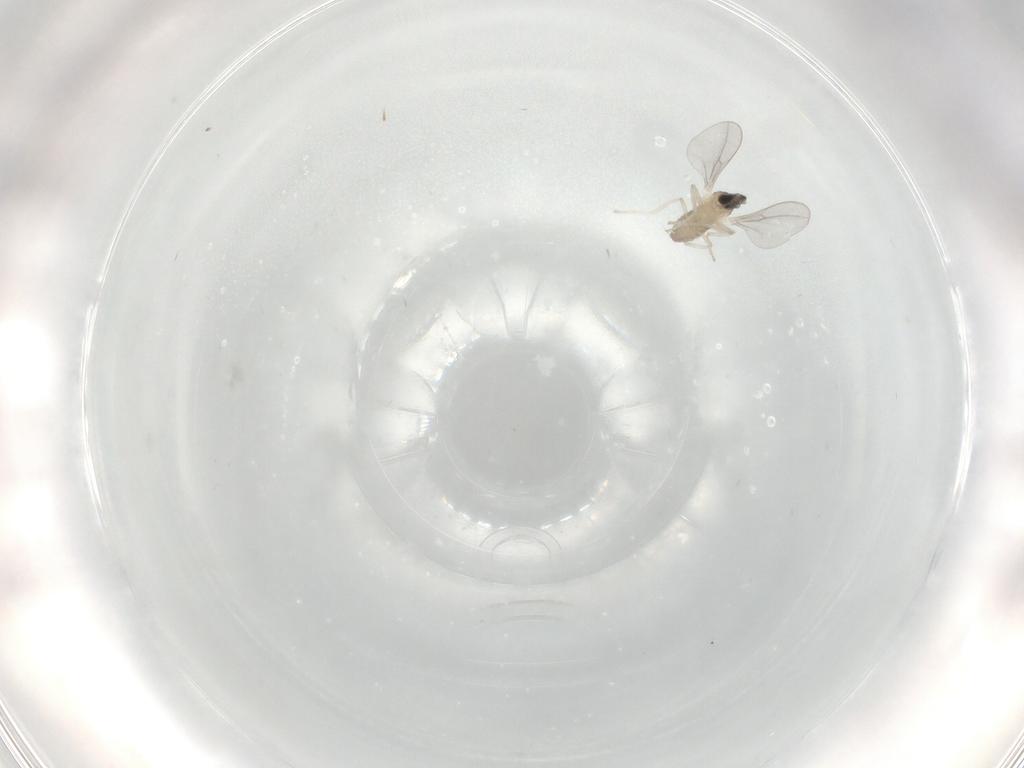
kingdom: Animalia
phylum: Arthropoda
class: Insecta
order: Diptera
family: Cecidomyiidae
